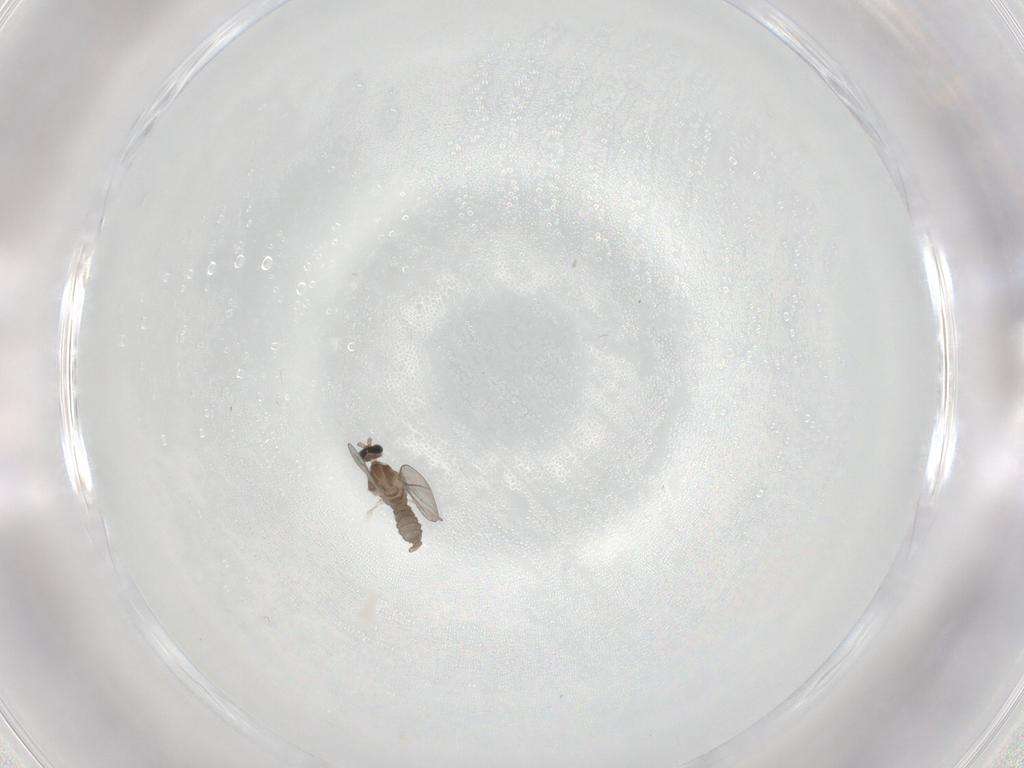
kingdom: Animalia
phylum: Arthropoda
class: Insecta
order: Diptera
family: Cecidomyiidae
